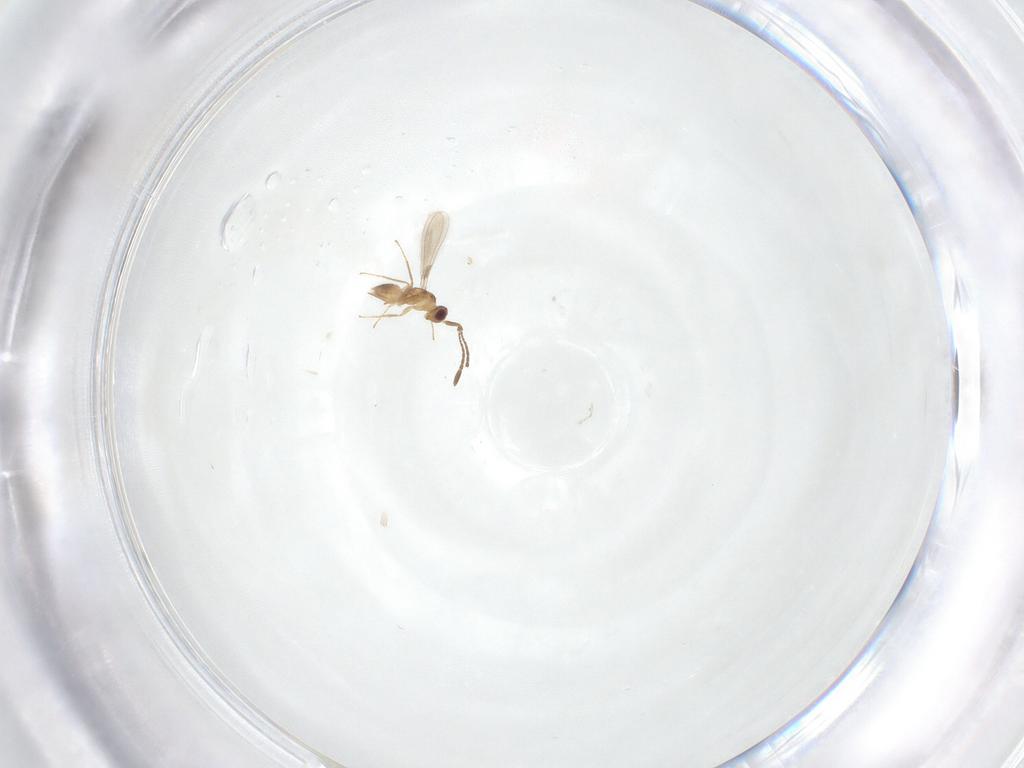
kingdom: Animalia
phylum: Arthropoda
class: Insecta
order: Hymenoptera
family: Mymaridae
